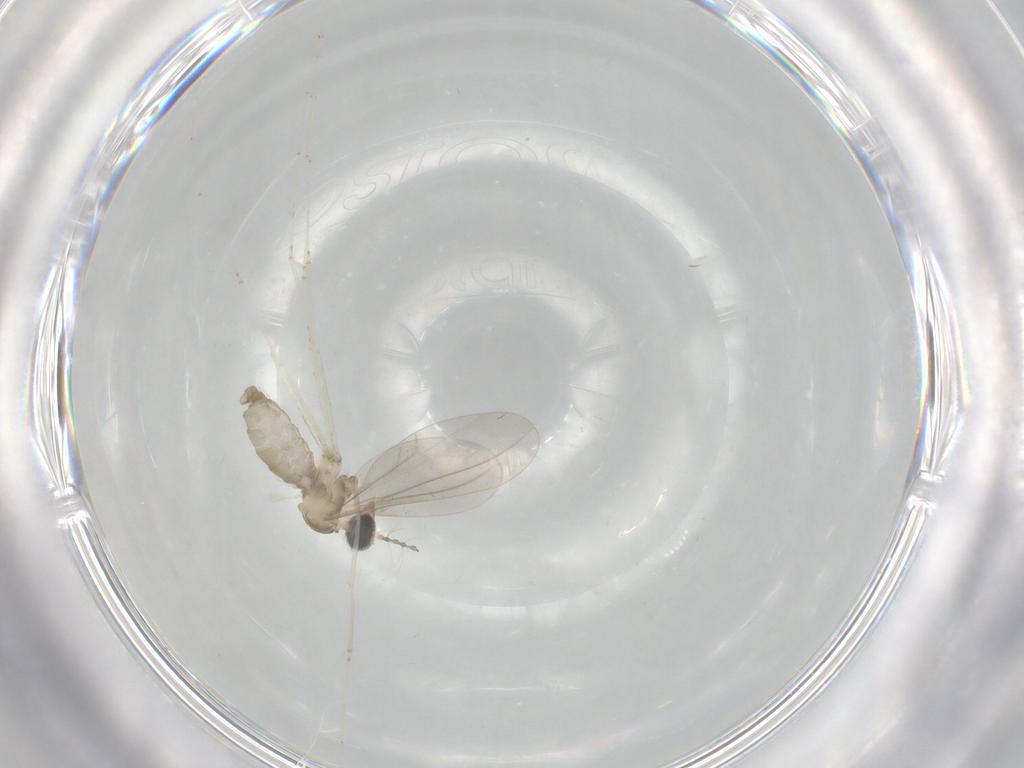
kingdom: Animalia
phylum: Arthropoda
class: Insecta
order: Diptera
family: Cecidomyiidae
